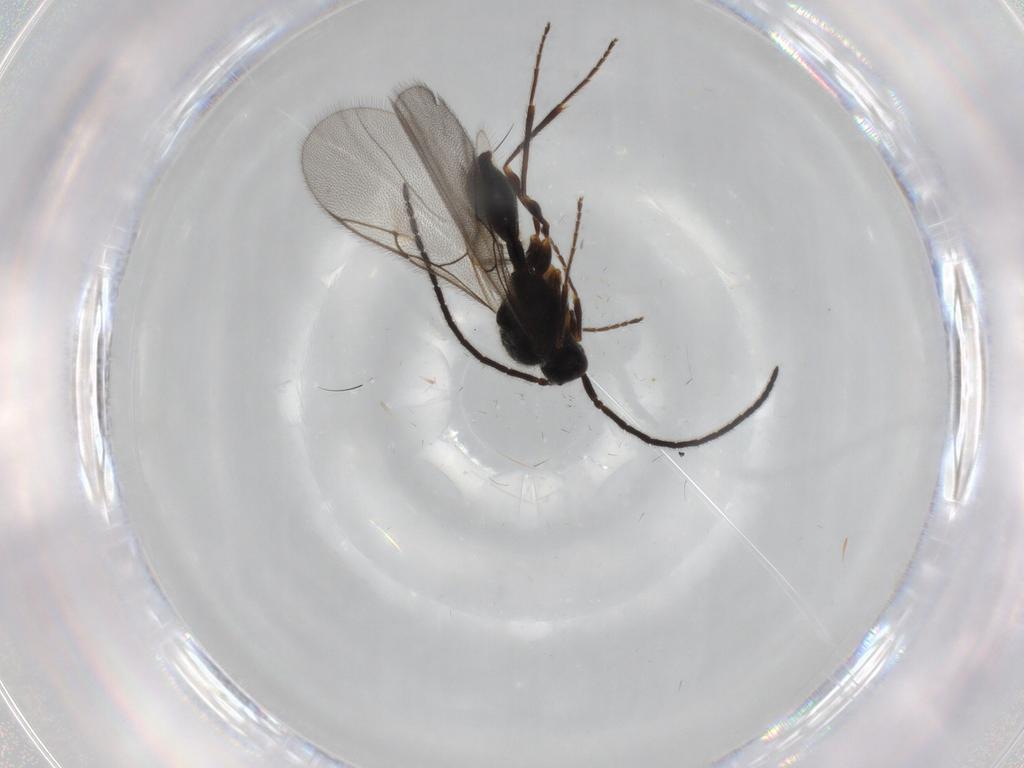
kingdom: Animalia
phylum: Arthropoda
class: Insecta
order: Hymenoptera
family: Diapriidae
